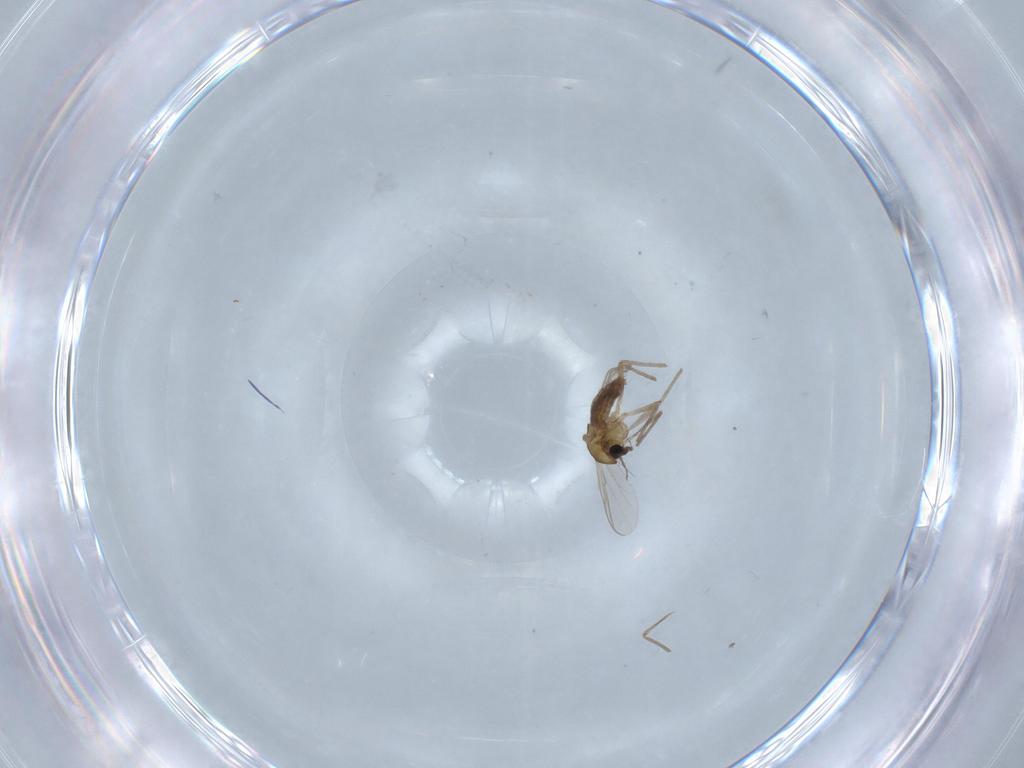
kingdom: Animalia
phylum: Arthropoda
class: Insecta
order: Diptera
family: Chironomidae
